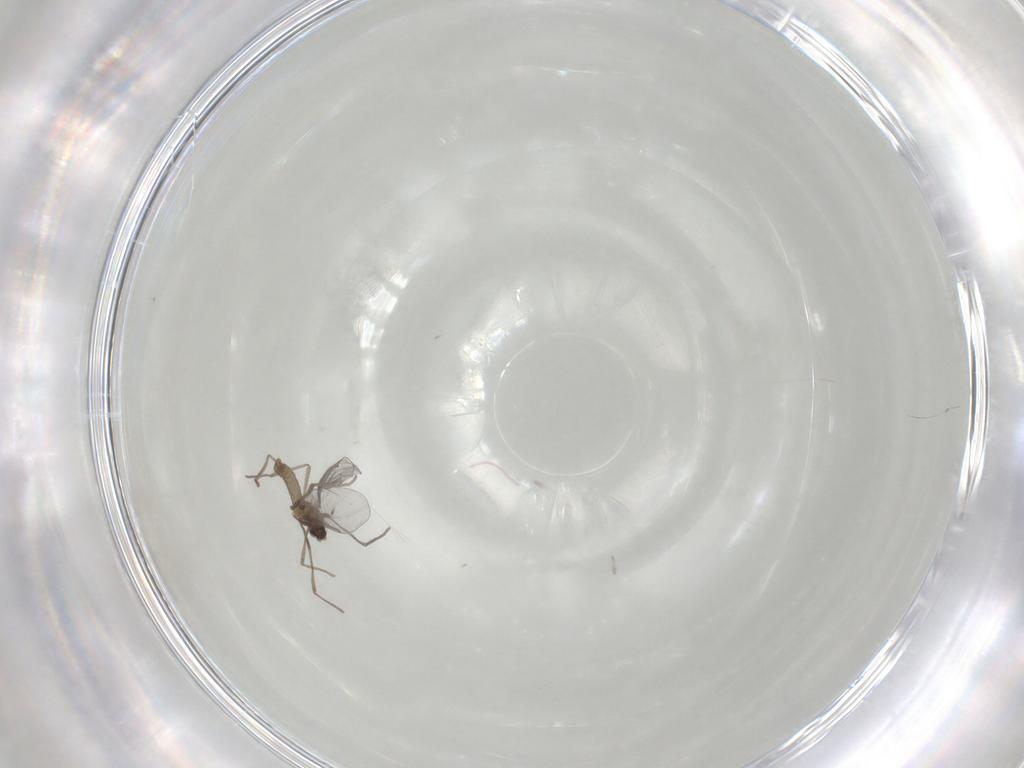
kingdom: Animalia
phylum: Arthropoda
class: Insecta
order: Diptera
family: Cecidomyiidae
